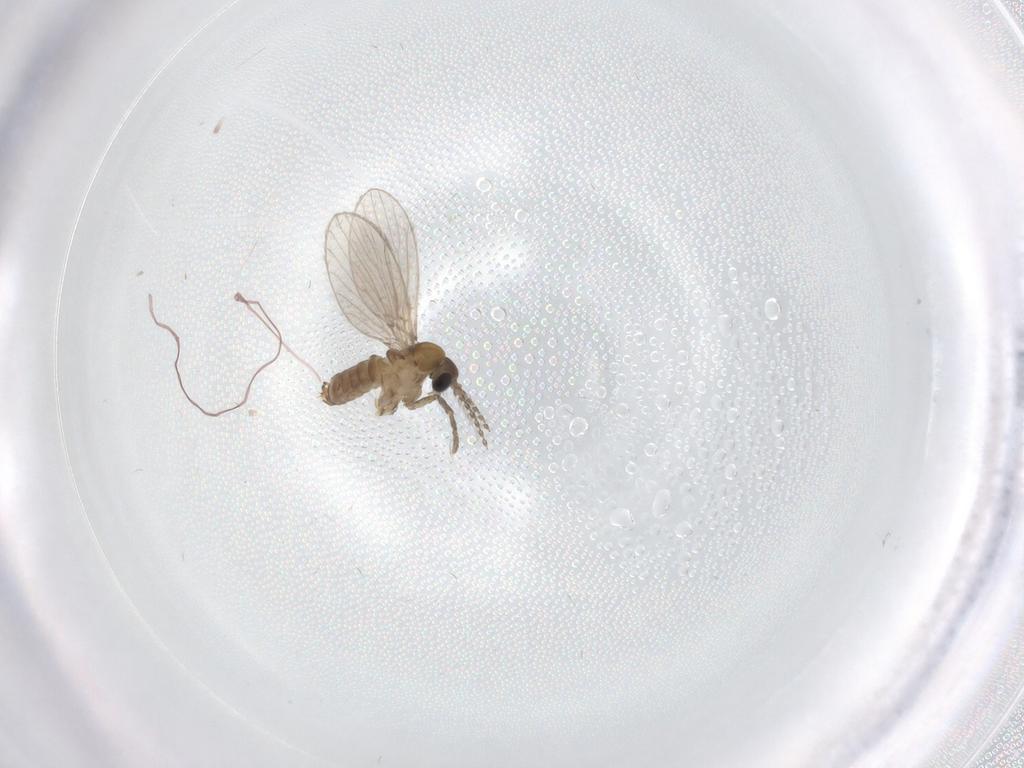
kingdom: Animalia
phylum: Arthropoda
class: Insecta
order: Diptera
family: Psychodidae
